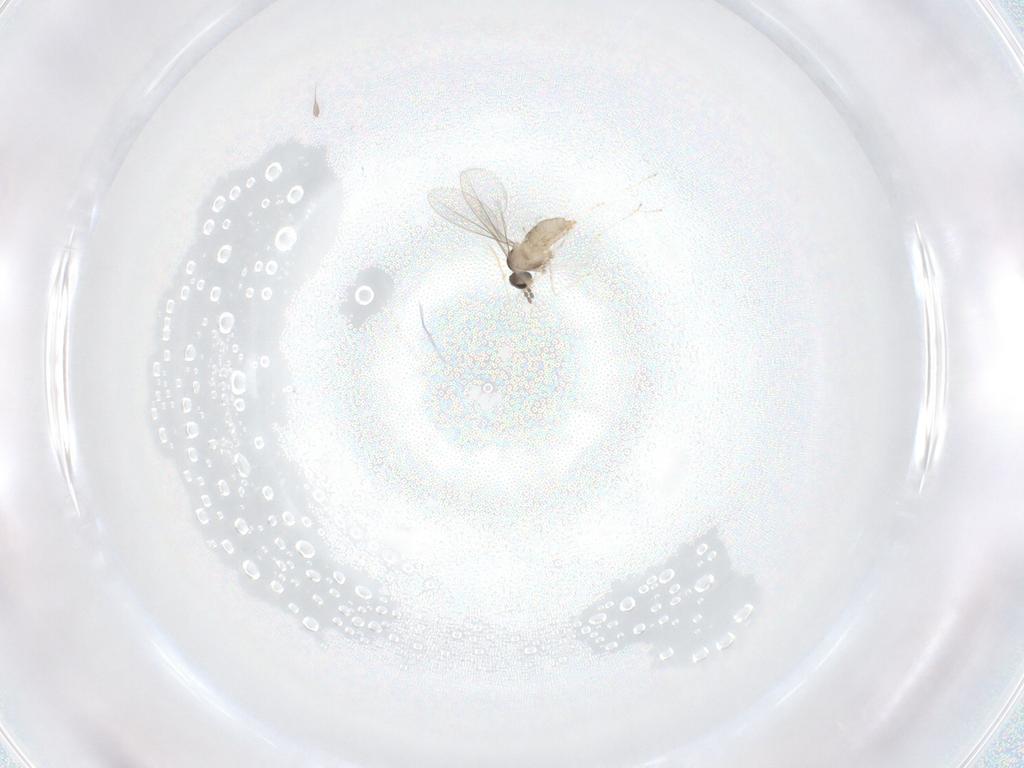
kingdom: Animalia
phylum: Arthropoda
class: Insecta
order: Diptera
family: Cecidomyiidae
